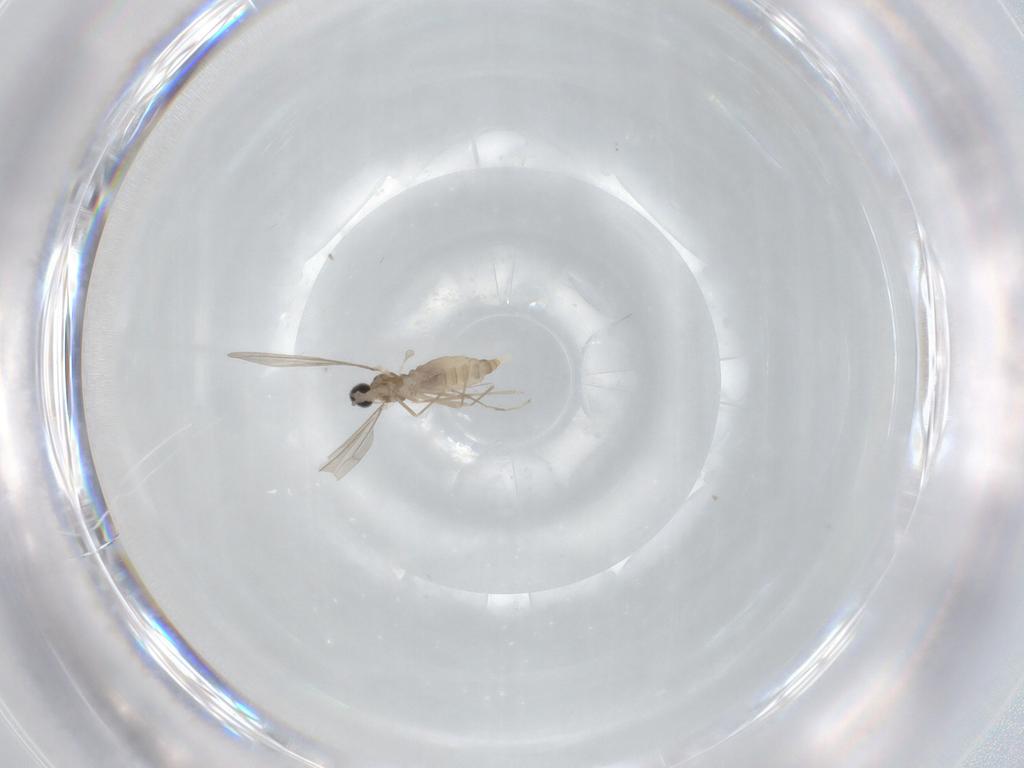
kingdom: Animalia
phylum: Arthropoda
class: Insecta
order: Diptera
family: Cecidomyiidae
